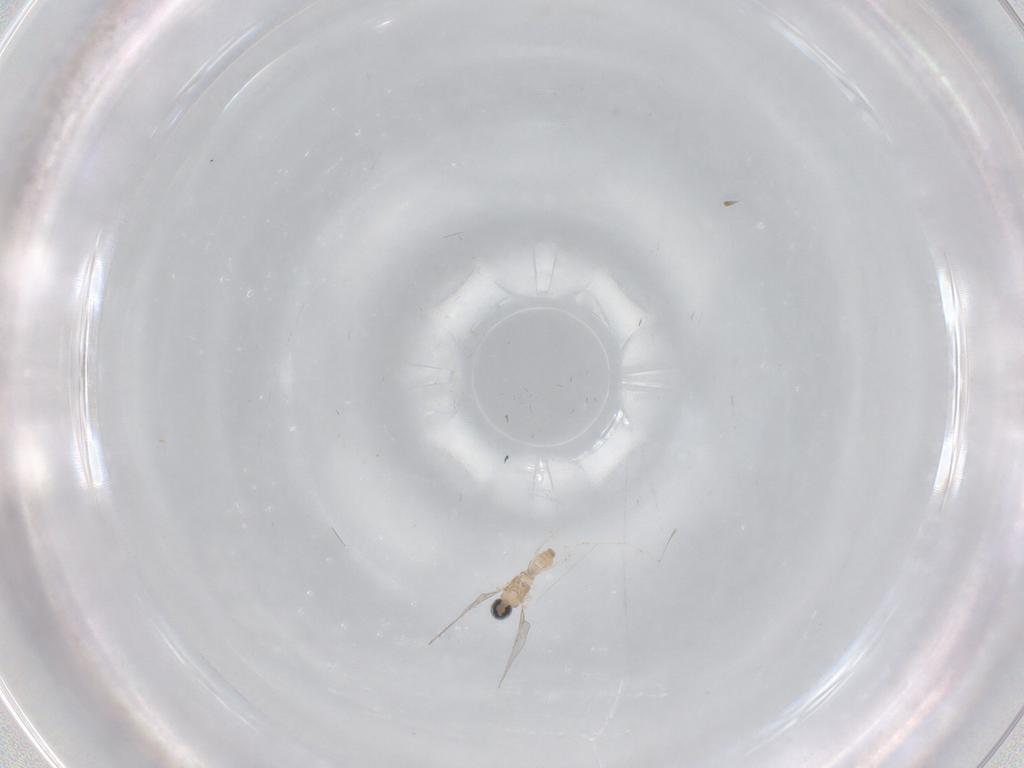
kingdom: Animalia
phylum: Arthropoda
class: Insecta
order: Diptera
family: Cecidomyiidae
